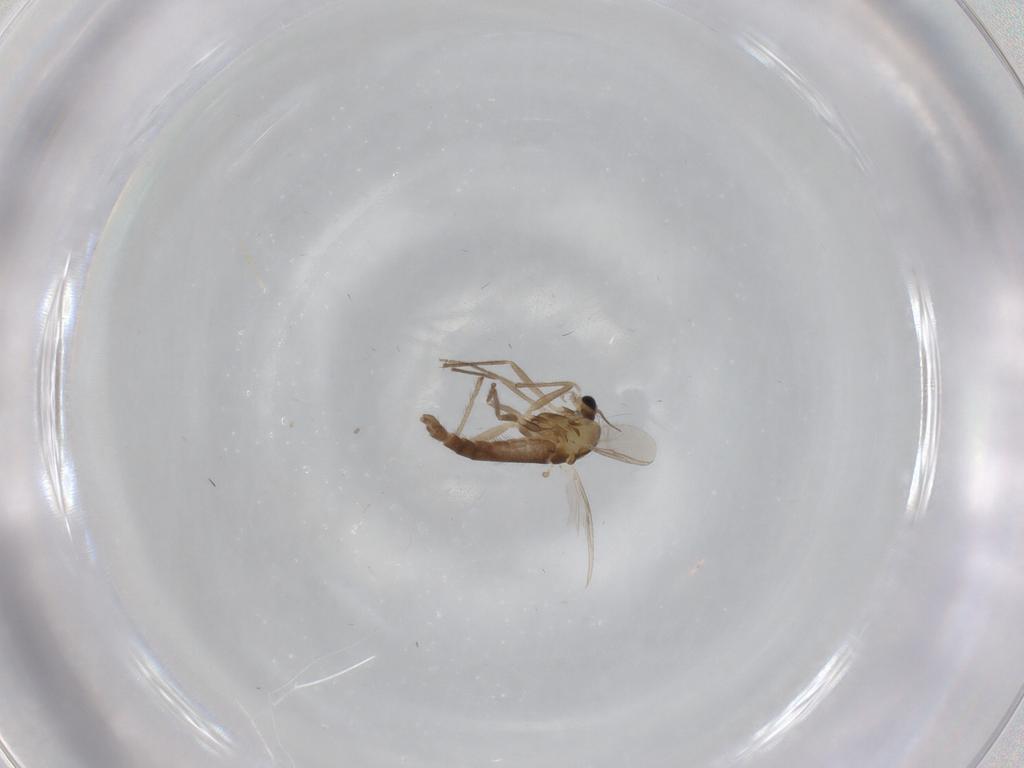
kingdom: Animalia
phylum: Arthropoda
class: Insecta
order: Diptera
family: Chironomidae
